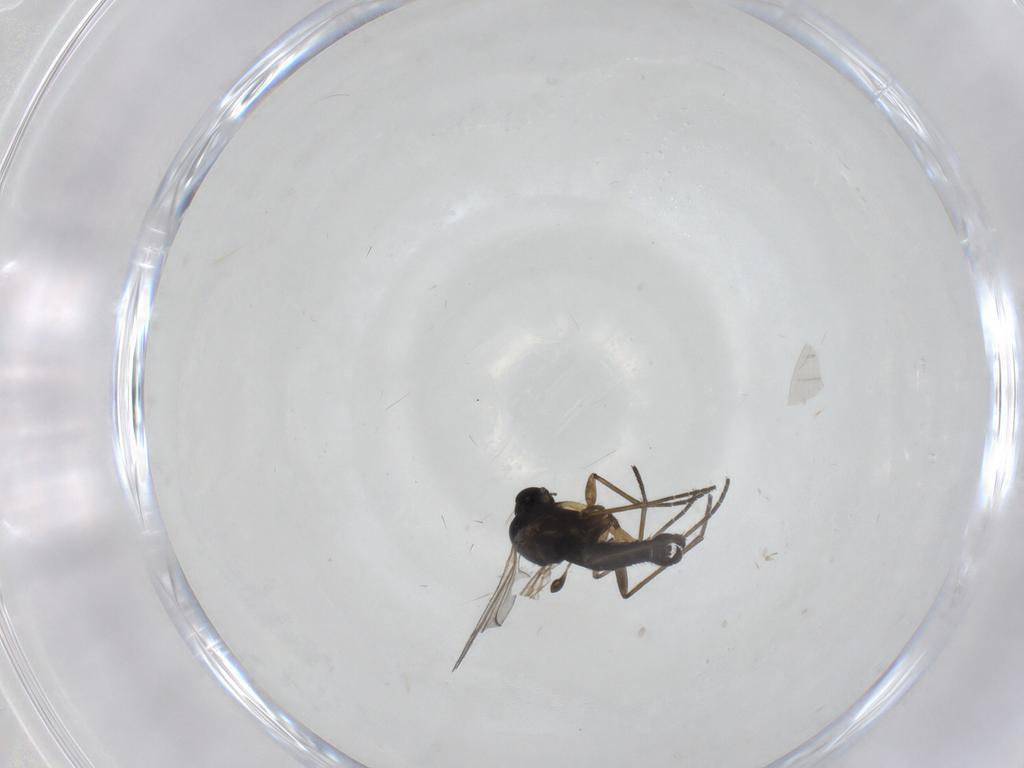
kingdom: Animalia
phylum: Arthropoda
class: Insecta
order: Diptera
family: Sciaridae
